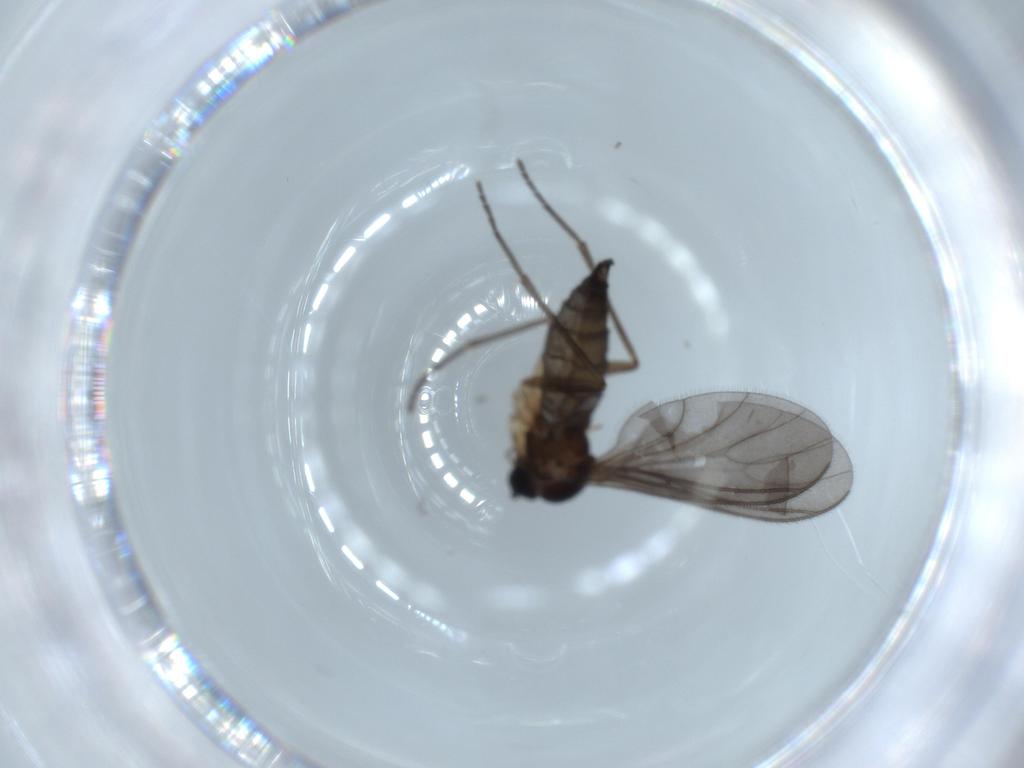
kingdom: Animalia
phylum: Arthropoda
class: Insecta
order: Diptera
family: Sciaridae
